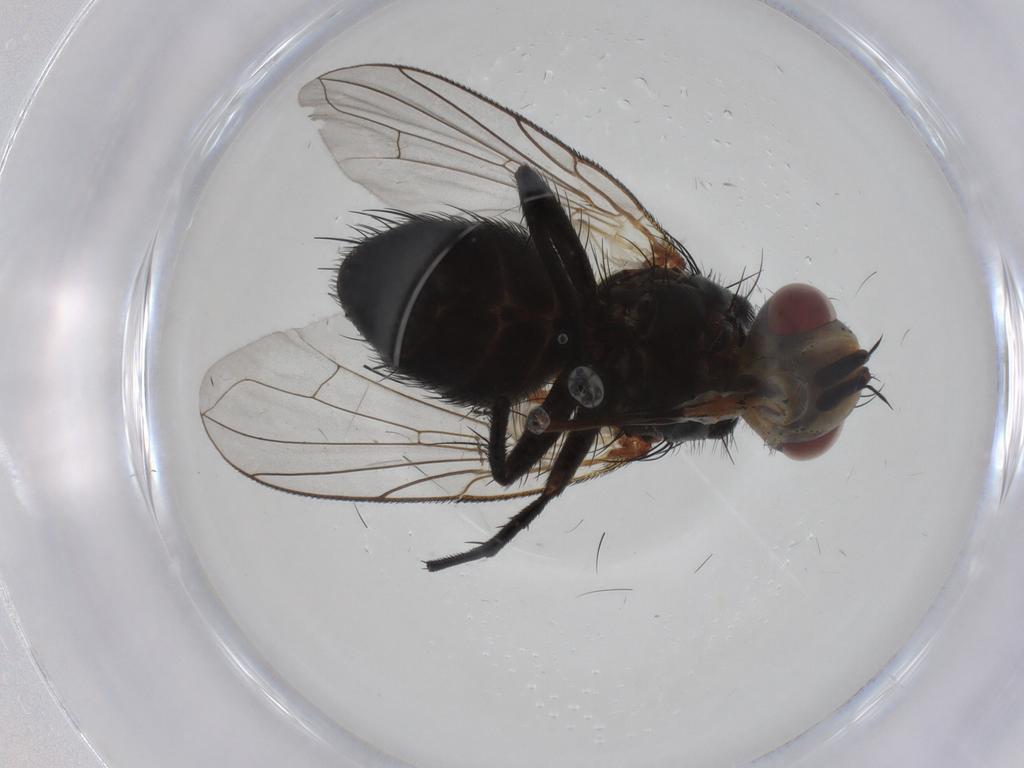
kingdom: Animalia
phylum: Arthropoda
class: Insecta
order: Diptera
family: Tachinidae
